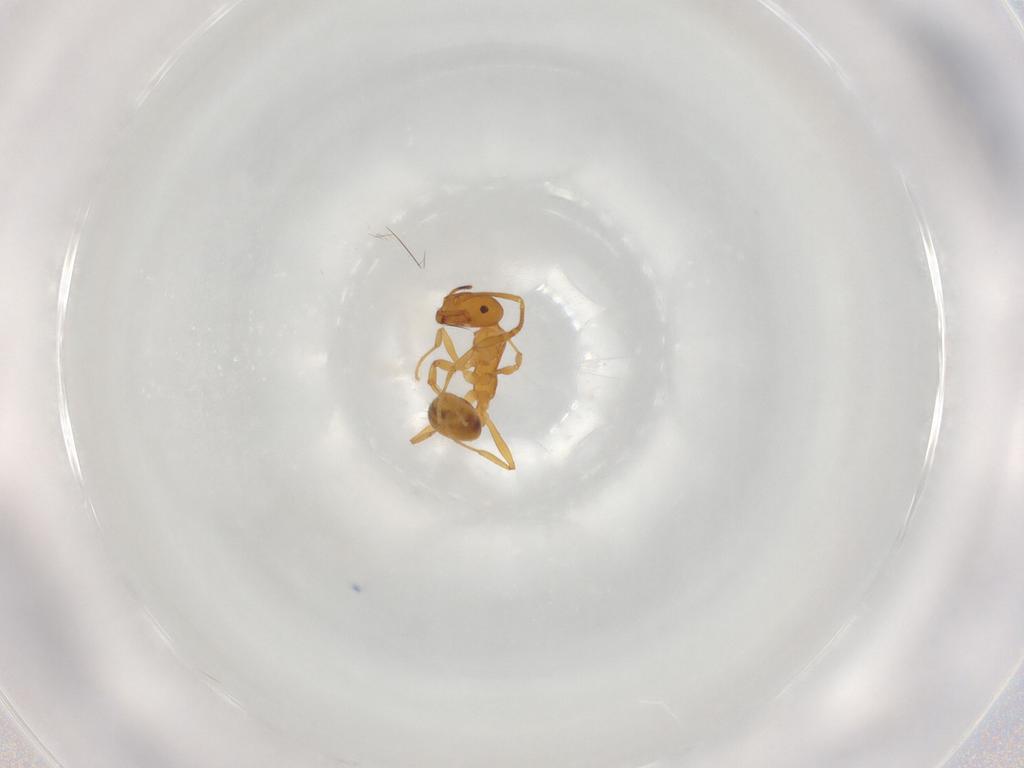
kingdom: Animalia
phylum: Arthropoda
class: Insecta
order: Hymenoptera
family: Formicidae
